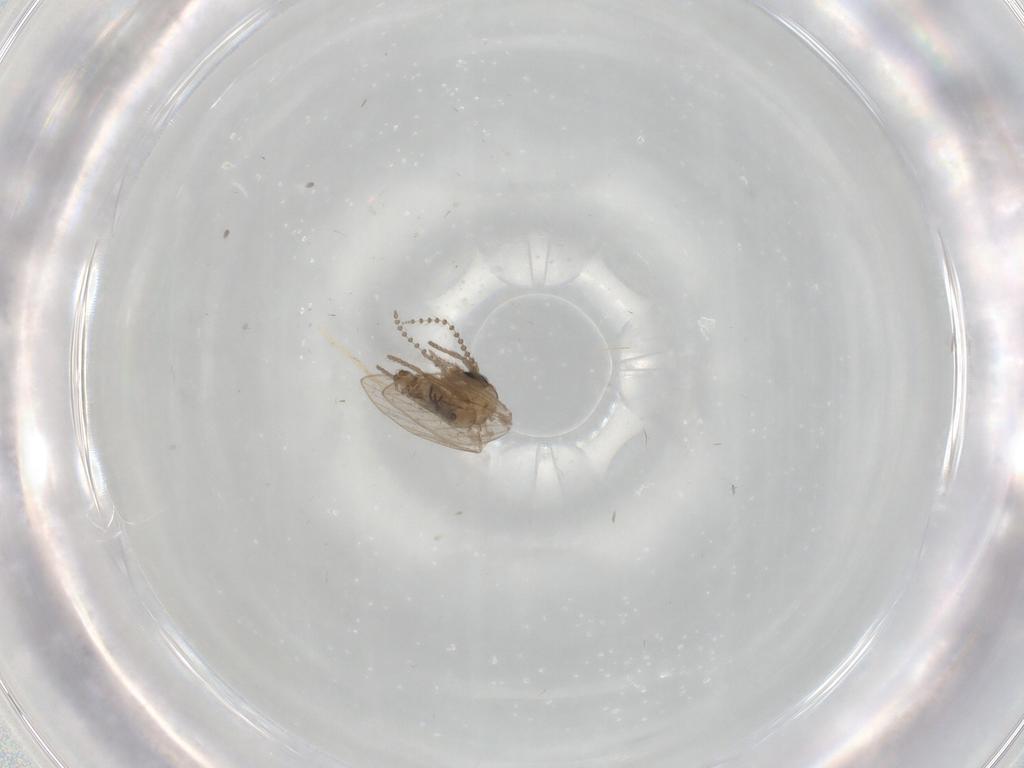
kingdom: Animalia
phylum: Arthropoda
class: Insecta
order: Diptera
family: Psychodidae
